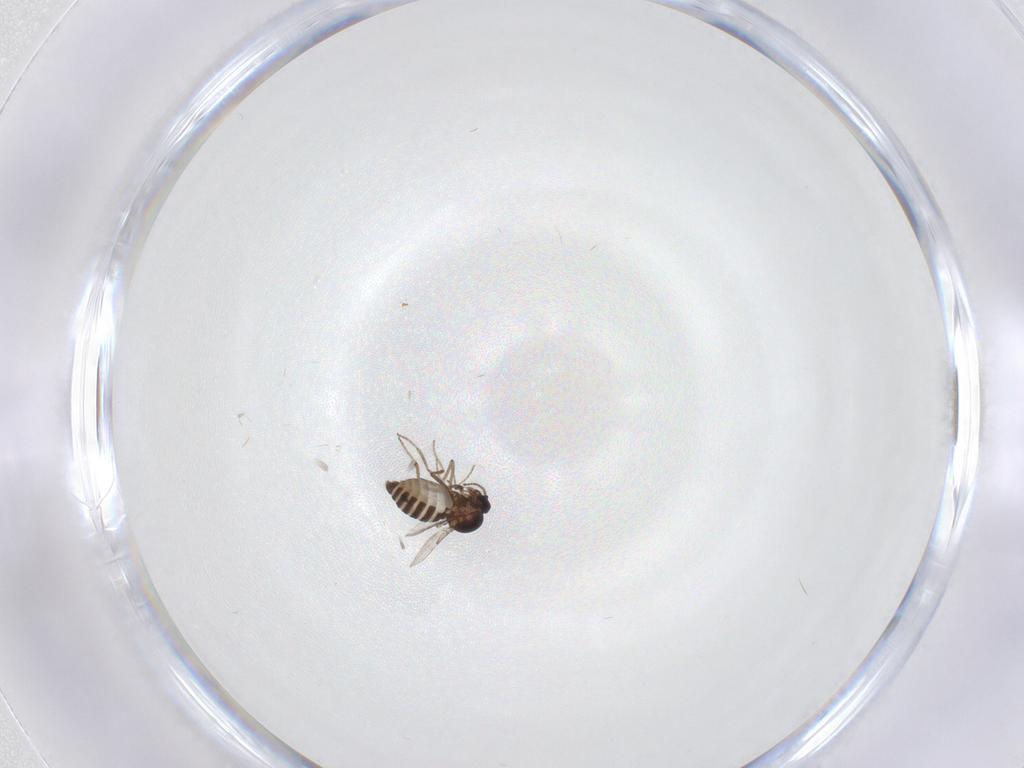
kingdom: Animalia
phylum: Arthropoda
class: Insecta
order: Diptera
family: Ceratopogonidae
